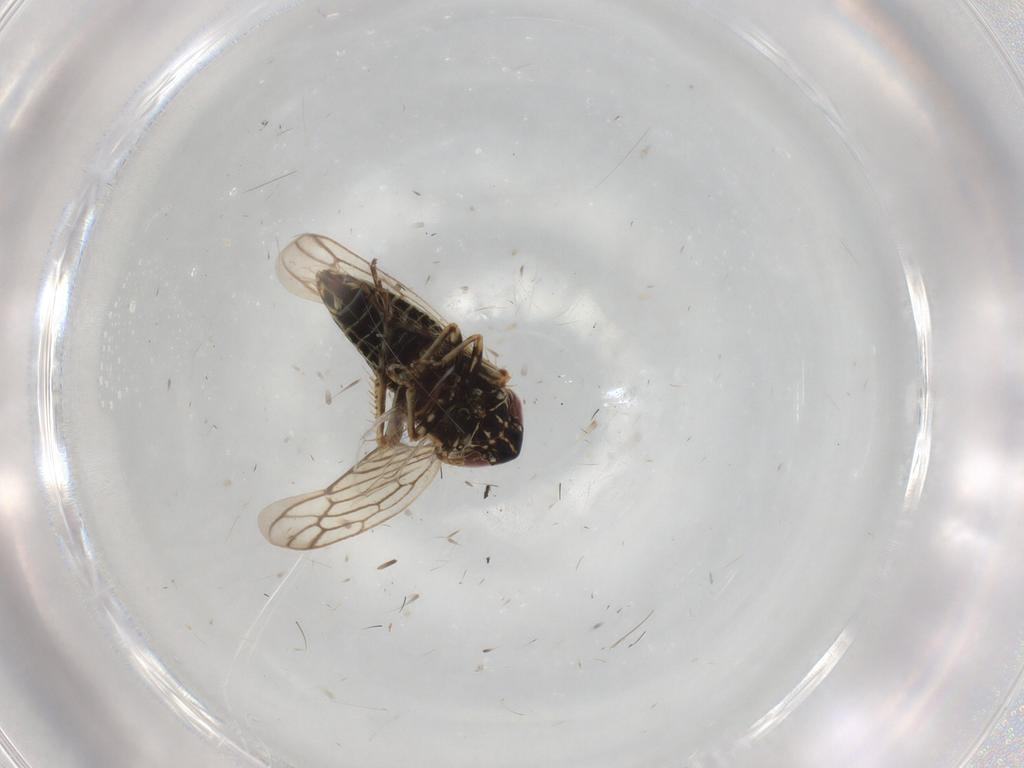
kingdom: Animalia
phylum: Arthropoda
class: Insecta
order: Hemiptera
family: Cicadellidae
